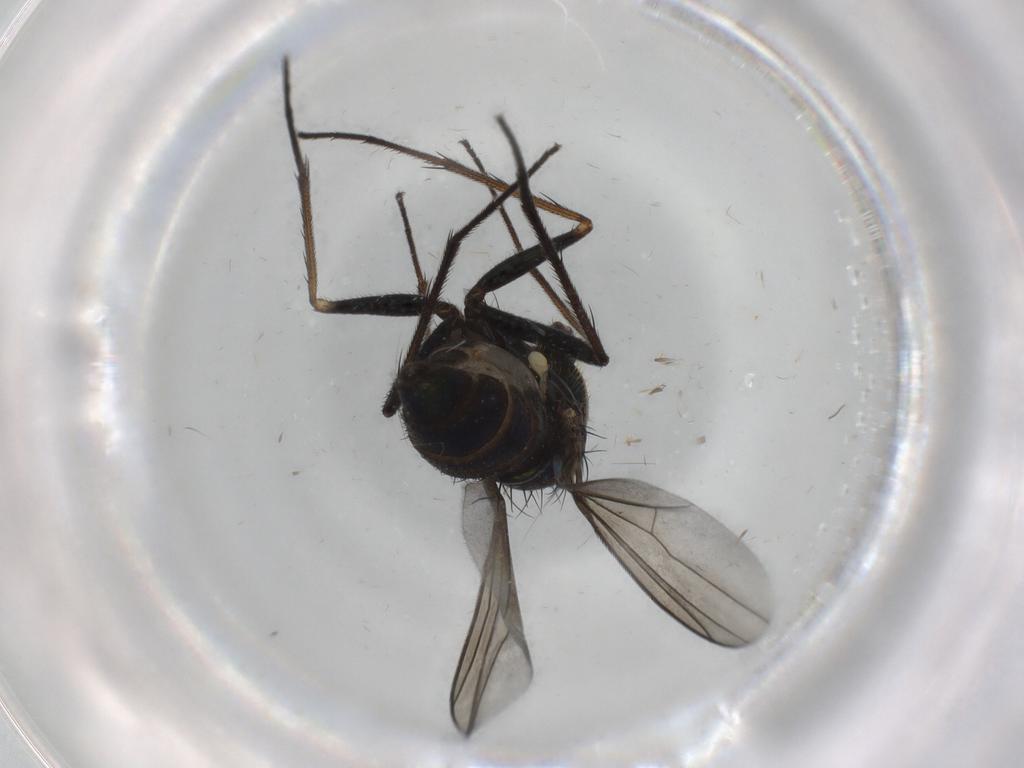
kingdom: Animalia
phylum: Arthropoda
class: Insecta
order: Diptera
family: Dolichopodidae
